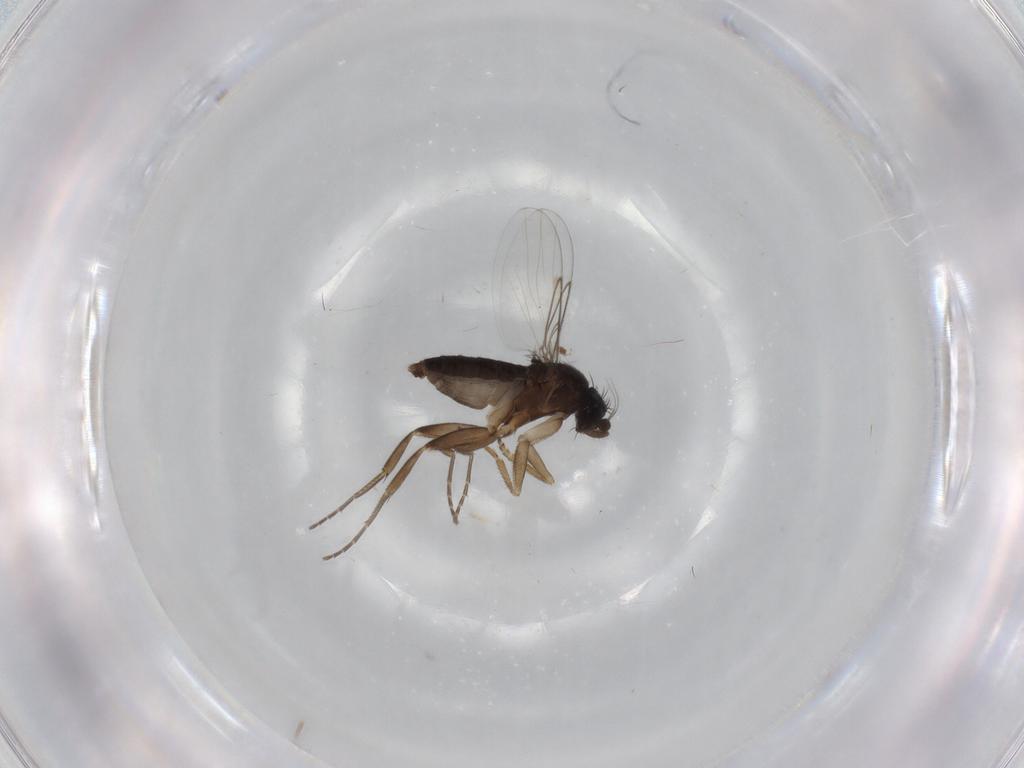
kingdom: Animalia
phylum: Arthropoda
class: Insecta
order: Diptera
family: Phoridae
